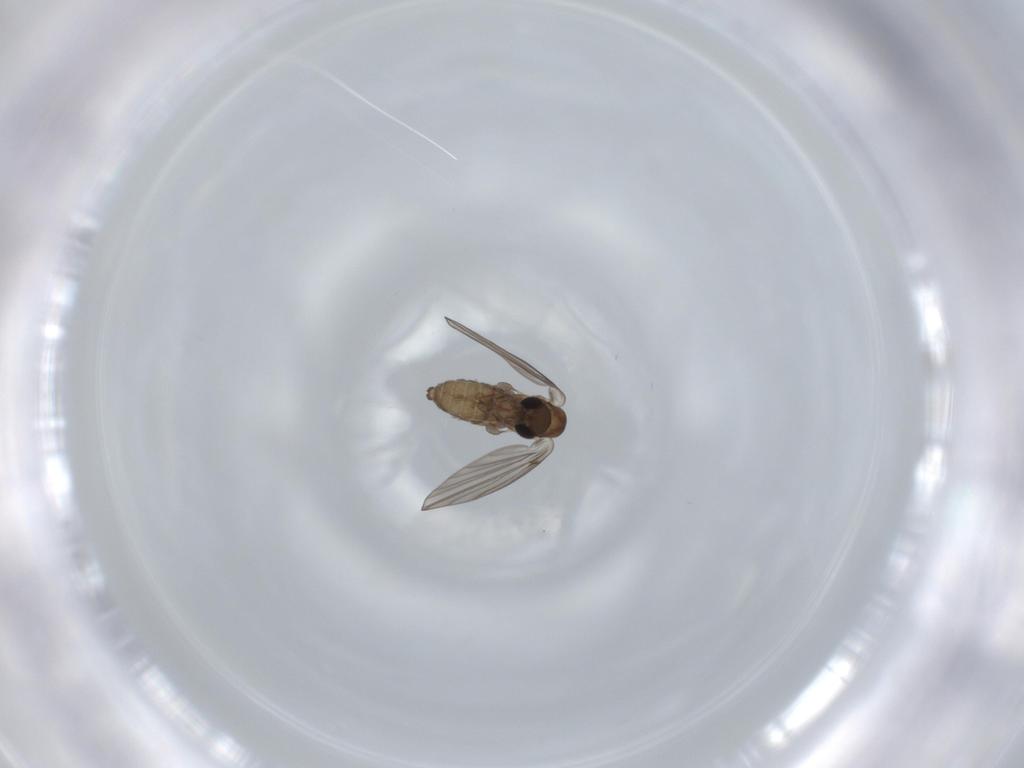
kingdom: Animalia
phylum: Arthropoda
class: Insecta
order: Diptera
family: Psychodidae
